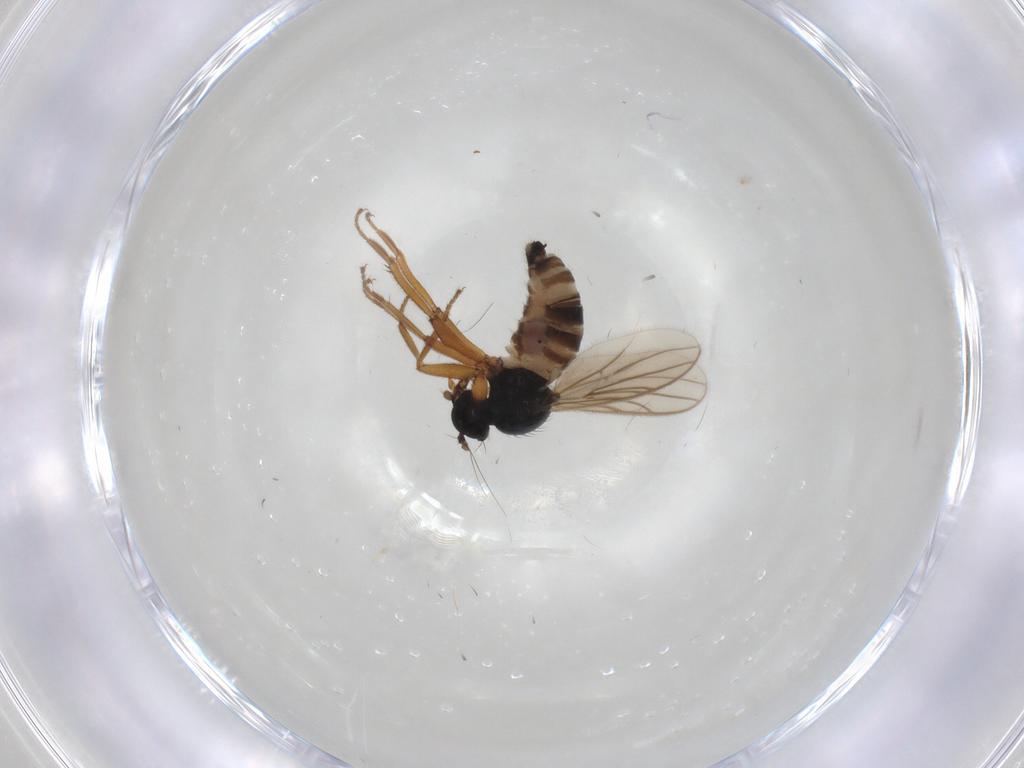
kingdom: Animalia
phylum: Arthropoda
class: Insecta
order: Diptera
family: Hybotidae
